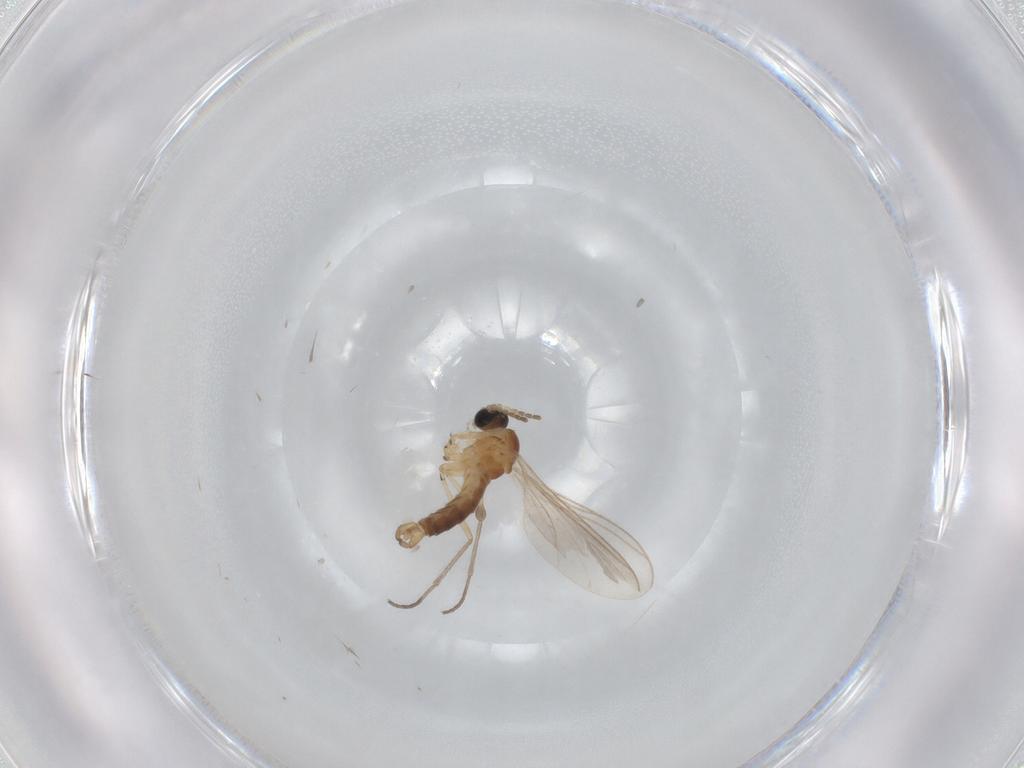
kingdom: Animalia
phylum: Arthropoda
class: Insecta
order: Diptera
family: Sciaridae
